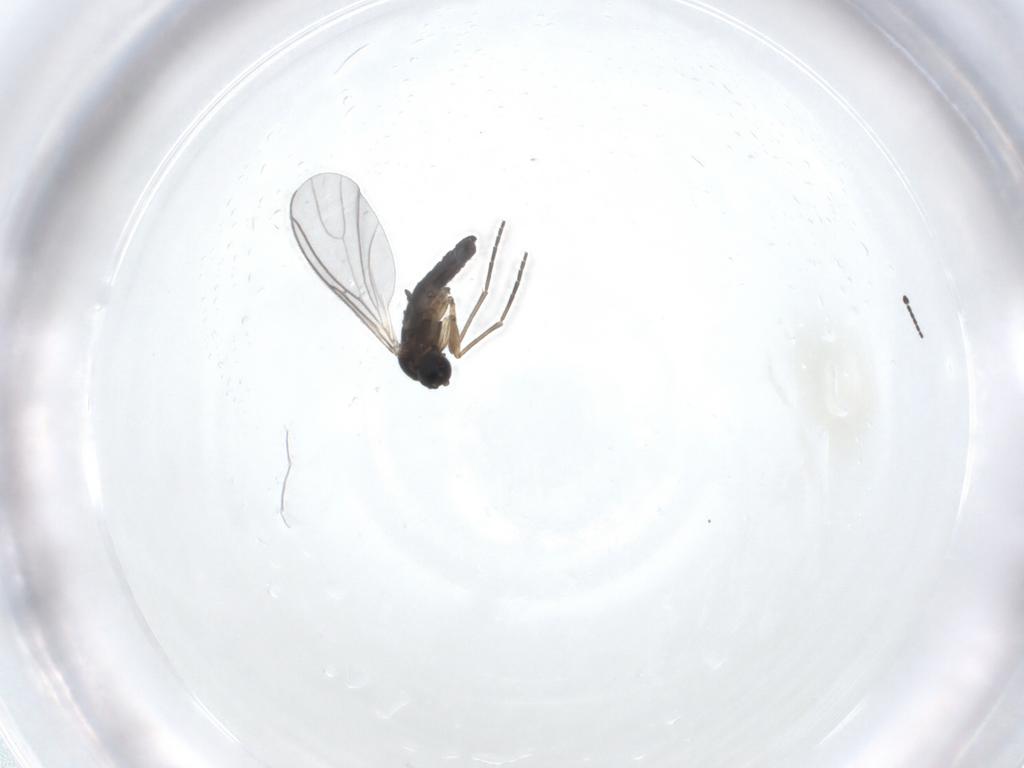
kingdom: Animalia
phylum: Arthropoda
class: Insecta
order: Diptera
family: Sciaridae
